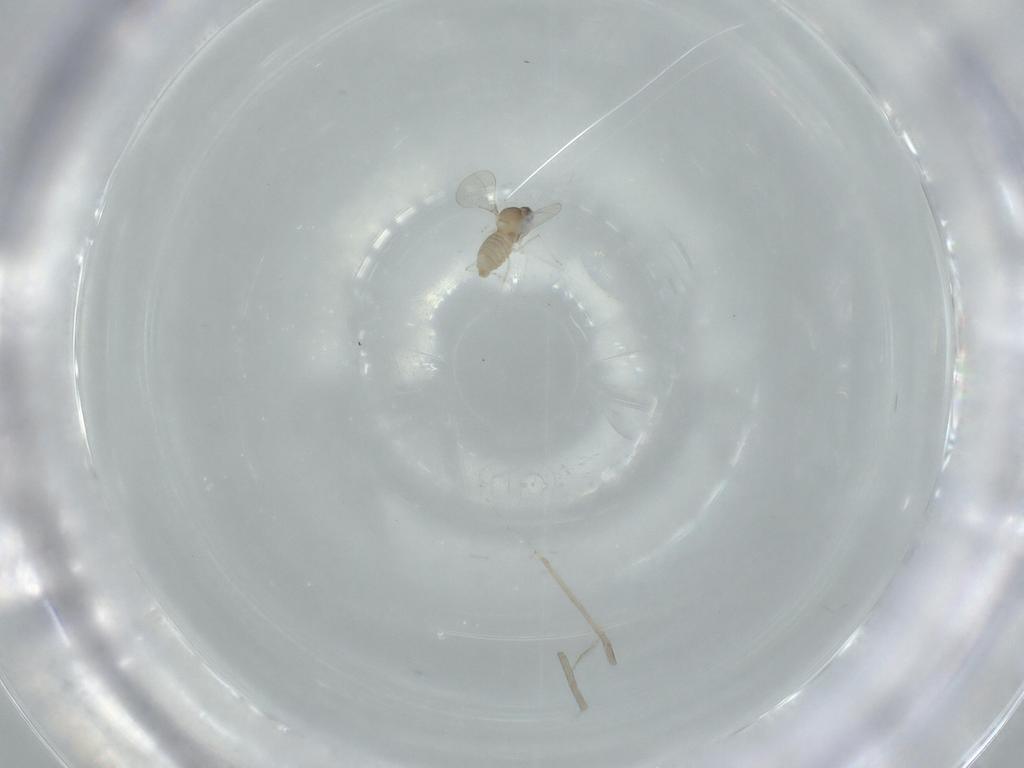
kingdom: Animalia
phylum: Arthropoda
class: Insecta
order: Diptera
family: Cecidomyiidae
